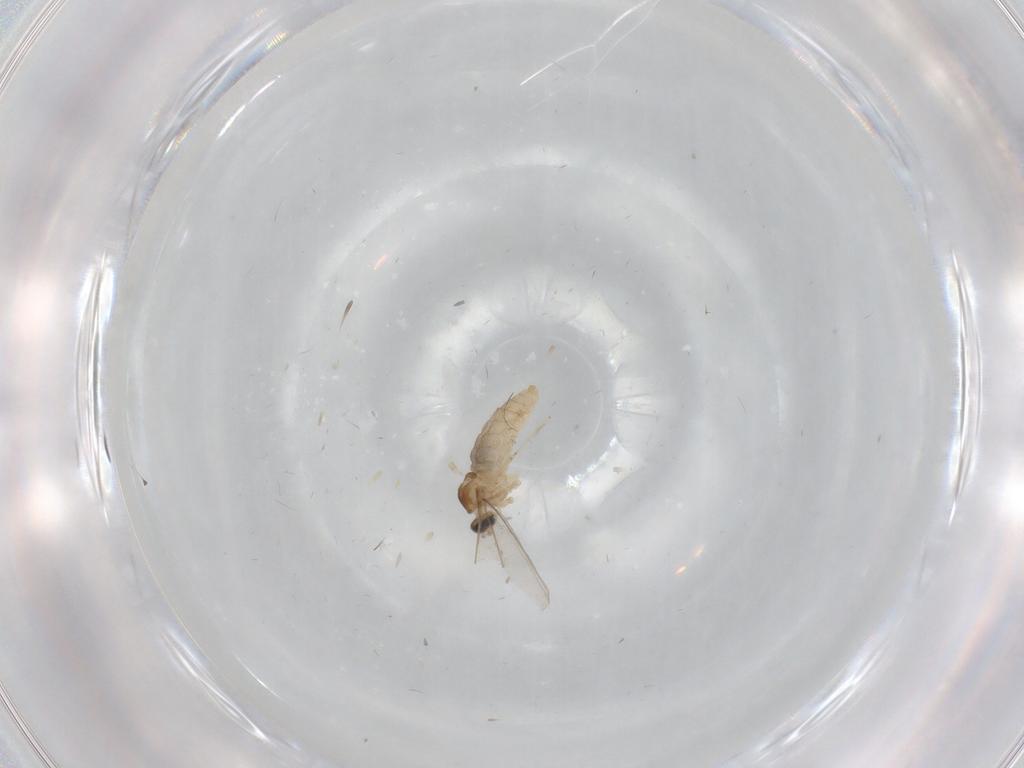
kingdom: Animalia
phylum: Arthropoda
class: Insecta
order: Diptera
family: Cecidomyiidae
